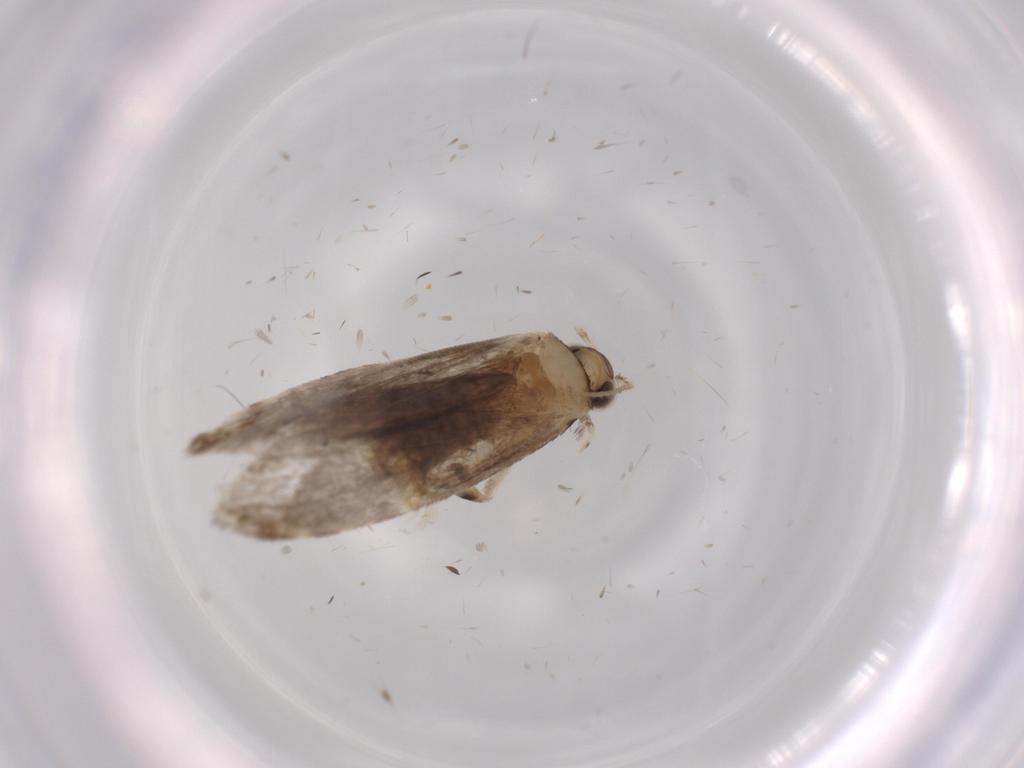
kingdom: Animalia
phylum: Arthropoda
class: Insecta
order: Lepidoptera
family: Tineidae
